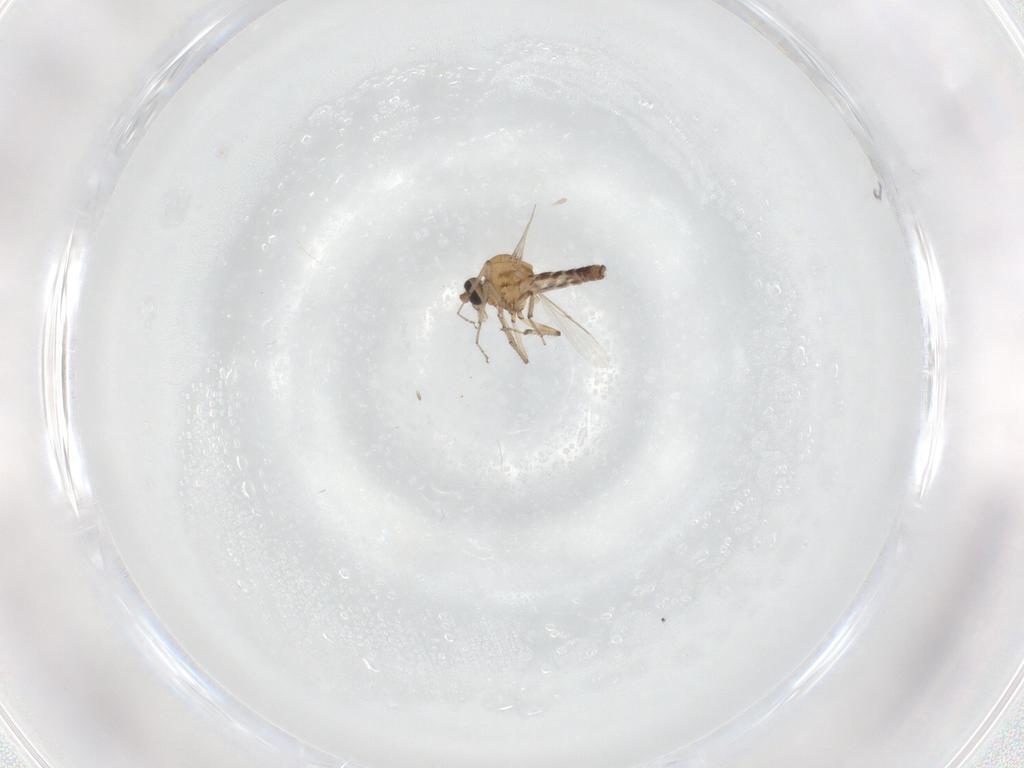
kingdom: Animalia
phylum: Arthropoda
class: Insecta
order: Diptera
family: Ceratopogonidae
